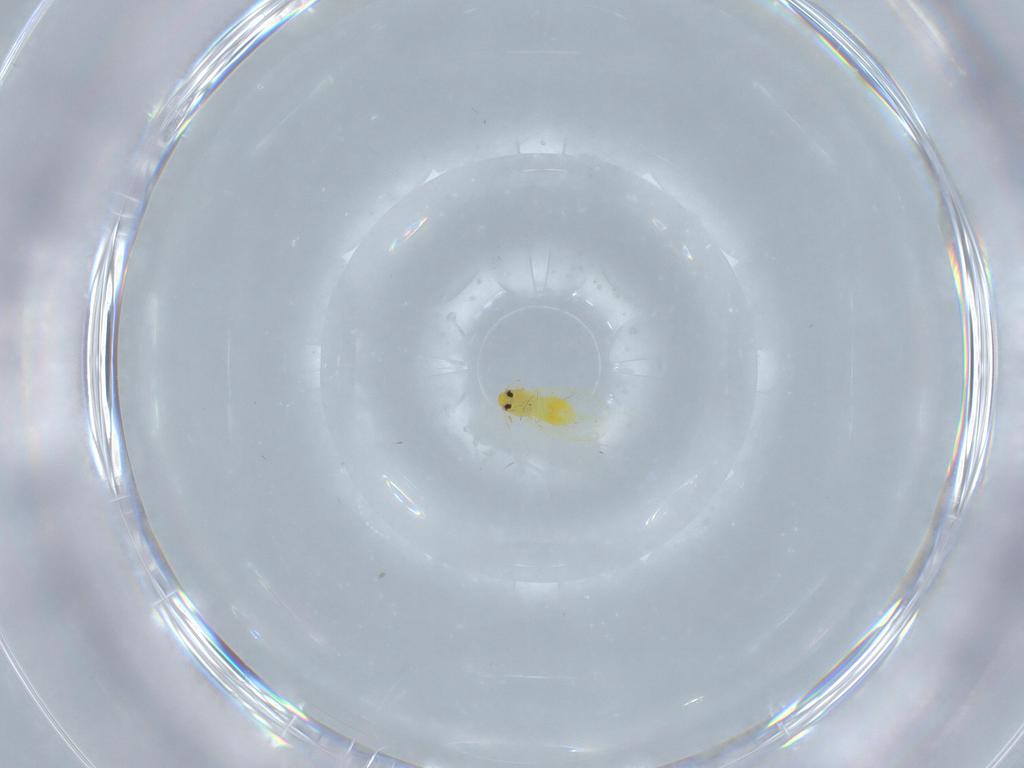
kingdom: Animalia
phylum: Arthropoda
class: Insecta
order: Hemiptera
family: Aleyrodidae
